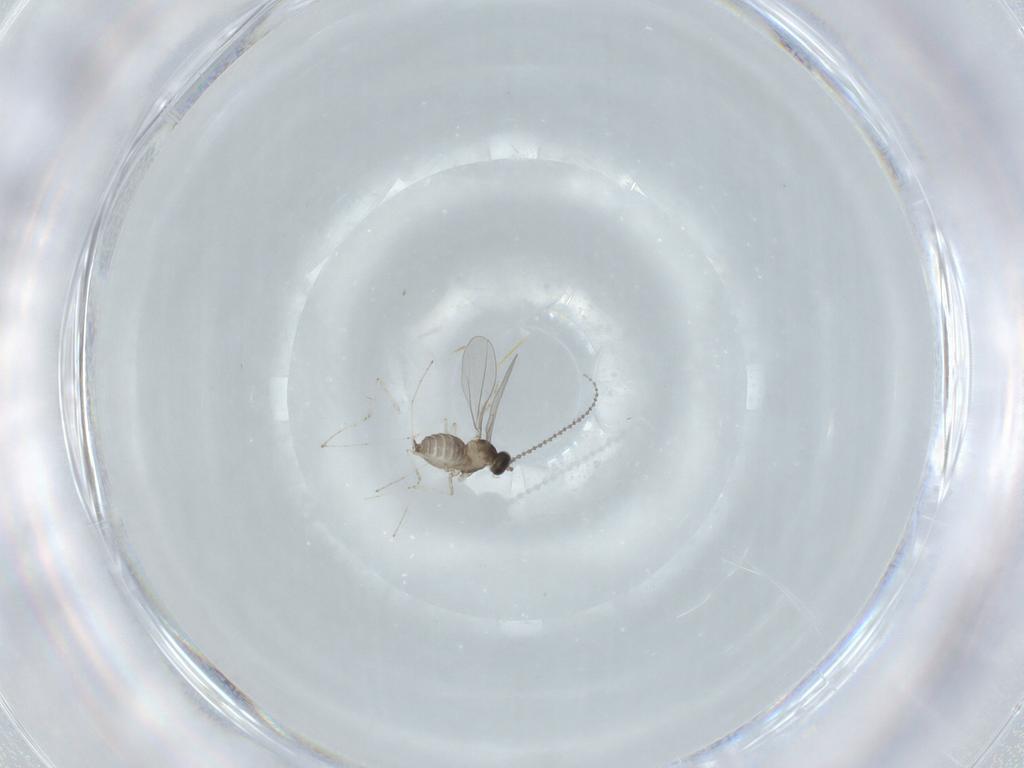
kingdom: Animalia
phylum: Arthropoda
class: Insecta
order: Diptera
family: Cecidomyiidae
